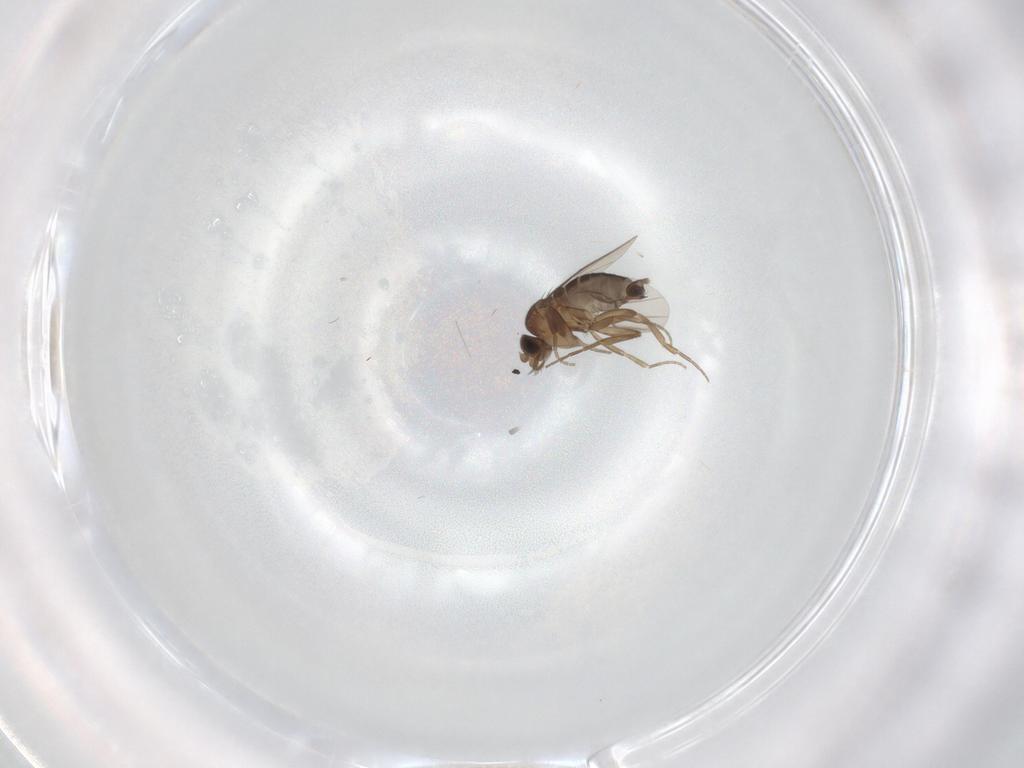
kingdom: Animalia
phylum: Arthropoda
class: Insecta
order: Diptera
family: Phoridae
